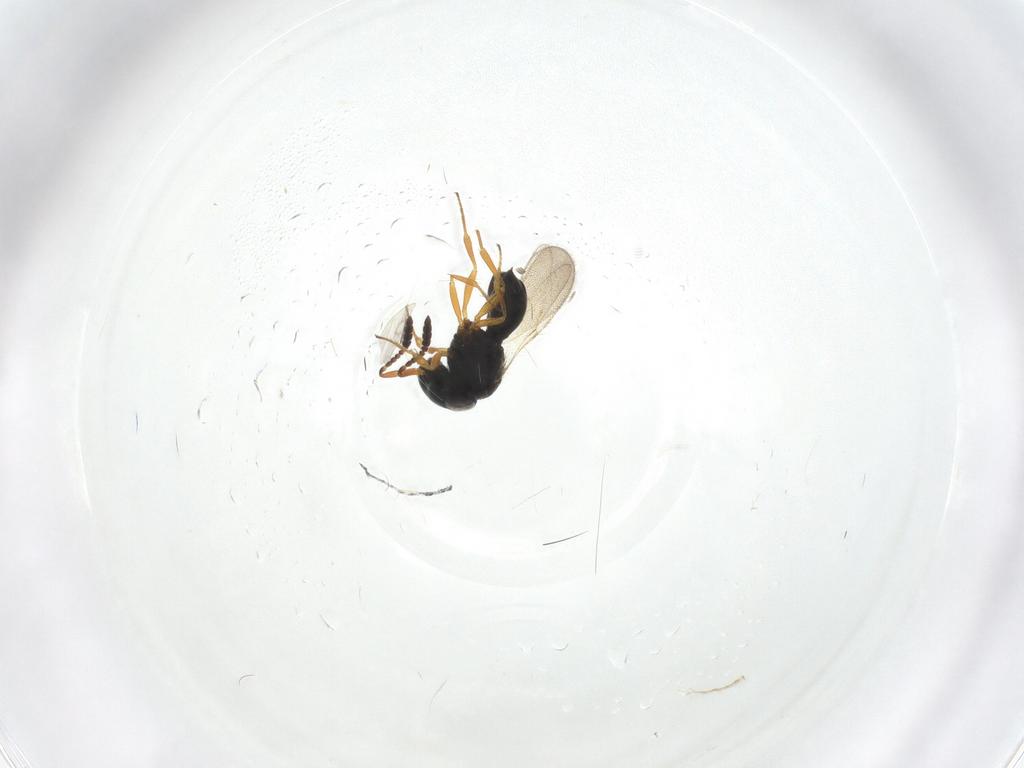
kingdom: Animalia
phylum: Arthropoda
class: Insecta
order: Hymenoptera
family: Scelionidae
